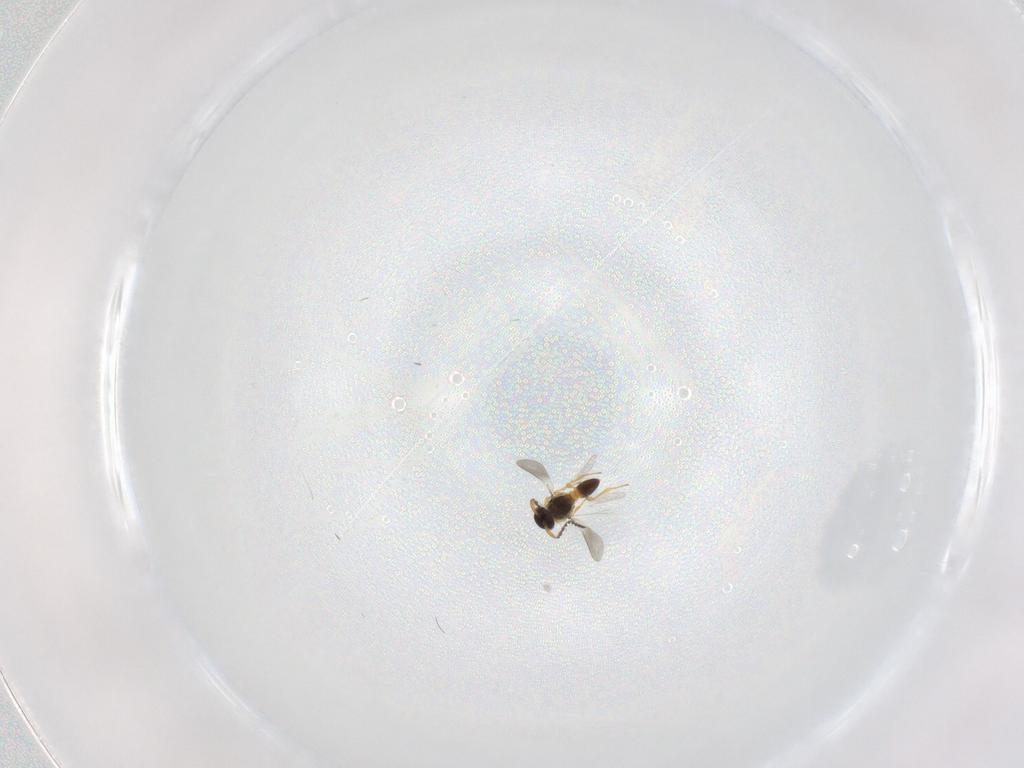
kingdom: Animalia
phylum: Arthropoda
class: Insecta
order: Hymenoptera
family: Platygastridae
